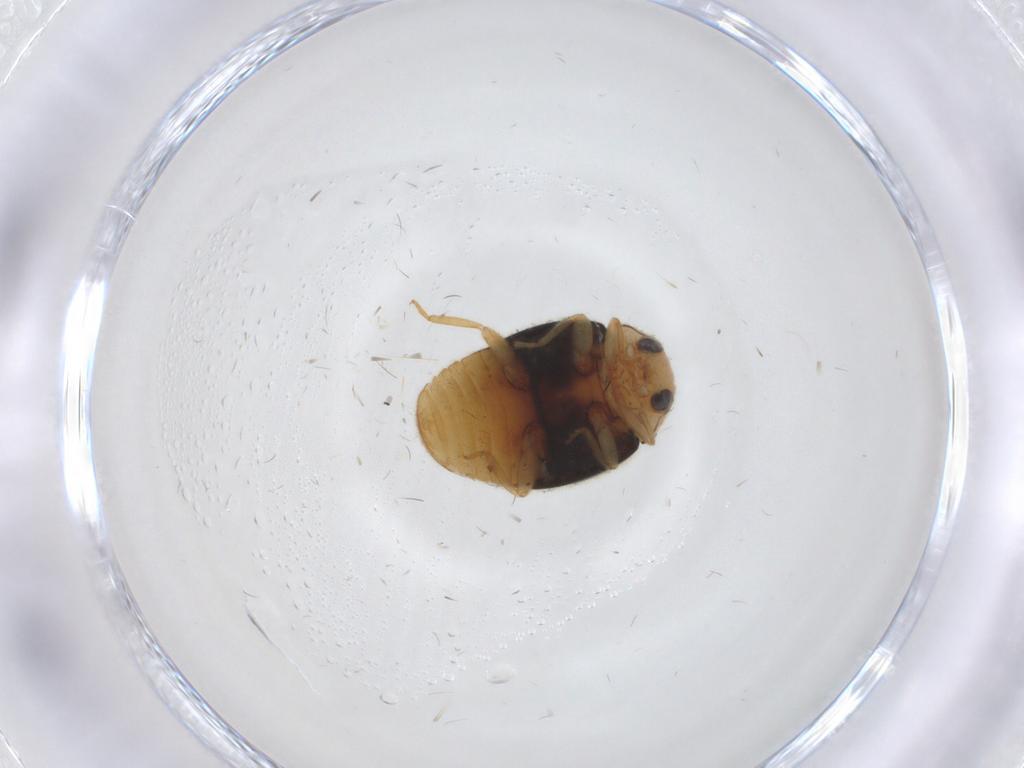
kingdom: Animalia
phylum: Arthropoda
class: Insecta
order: Coleoptera
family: Coccinellidae
